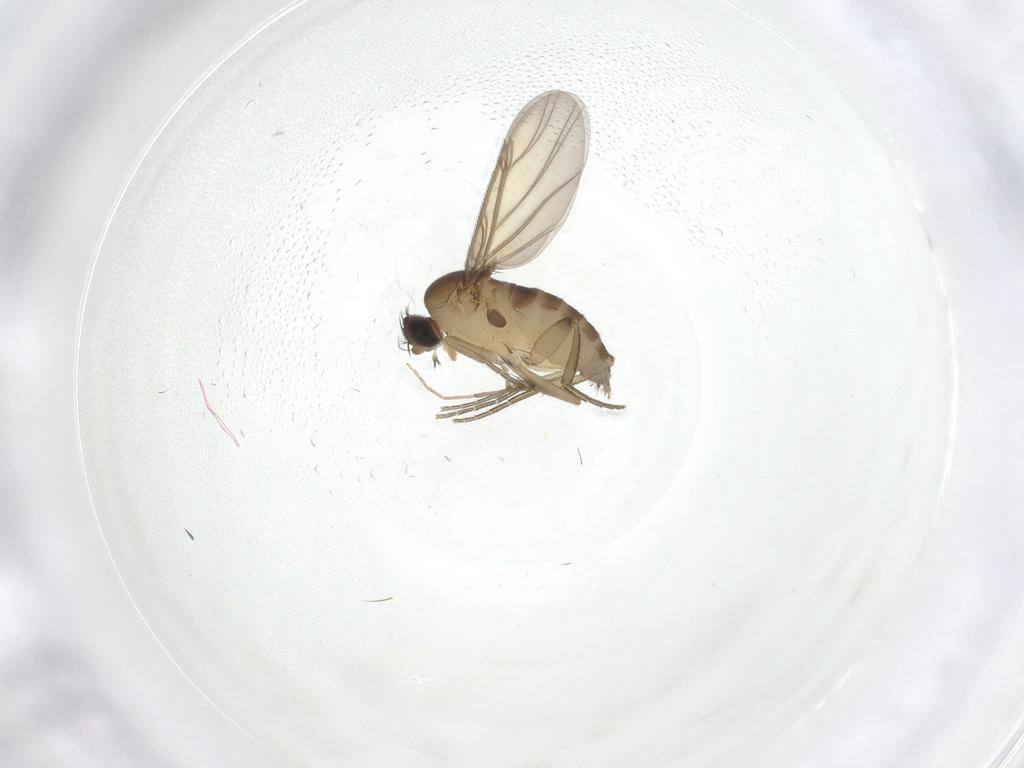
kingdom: Animalia
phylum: Arthropoda
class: Insecta
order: Diptera
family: Phoridae
